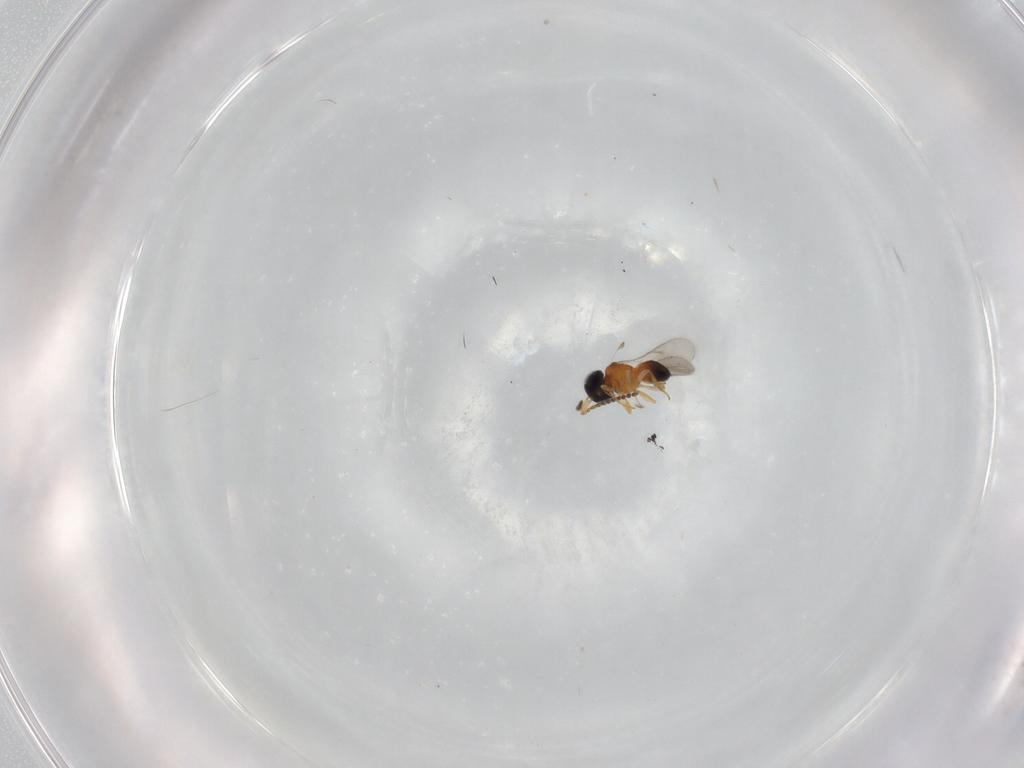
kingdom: Animalia
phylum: Arthropoda
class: Insecta
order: Hymenoptera
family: Scelionidae
